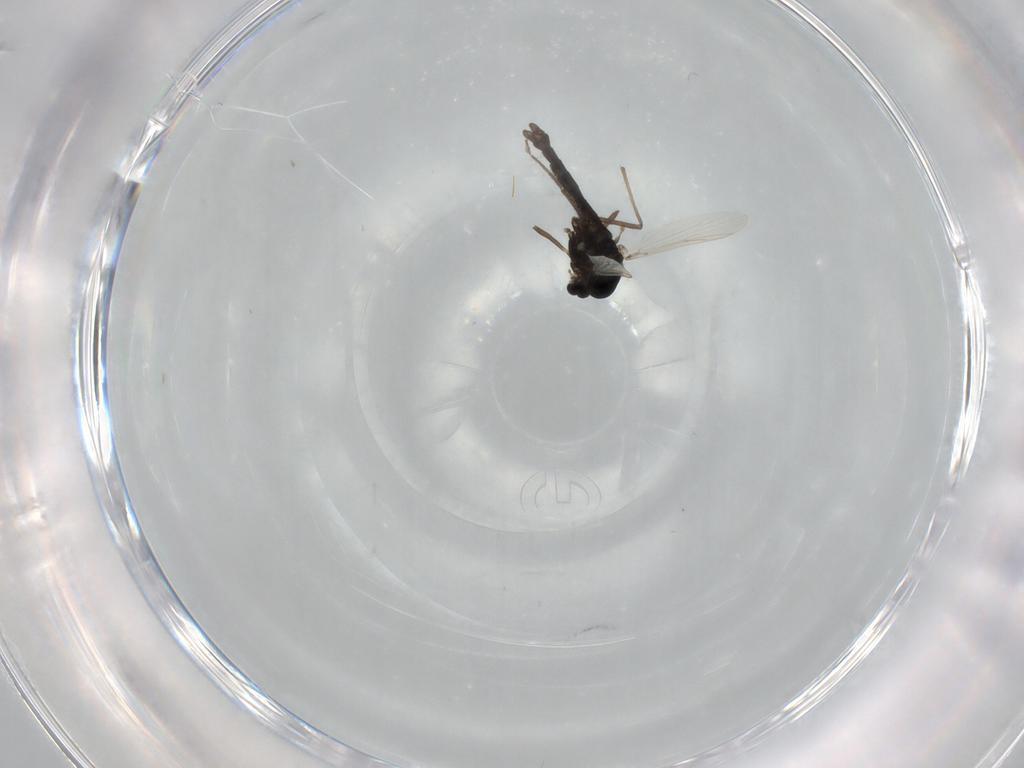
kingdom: Animalia
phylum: Arthropoda
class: Insecta
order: Diptera
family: Chironomidae
